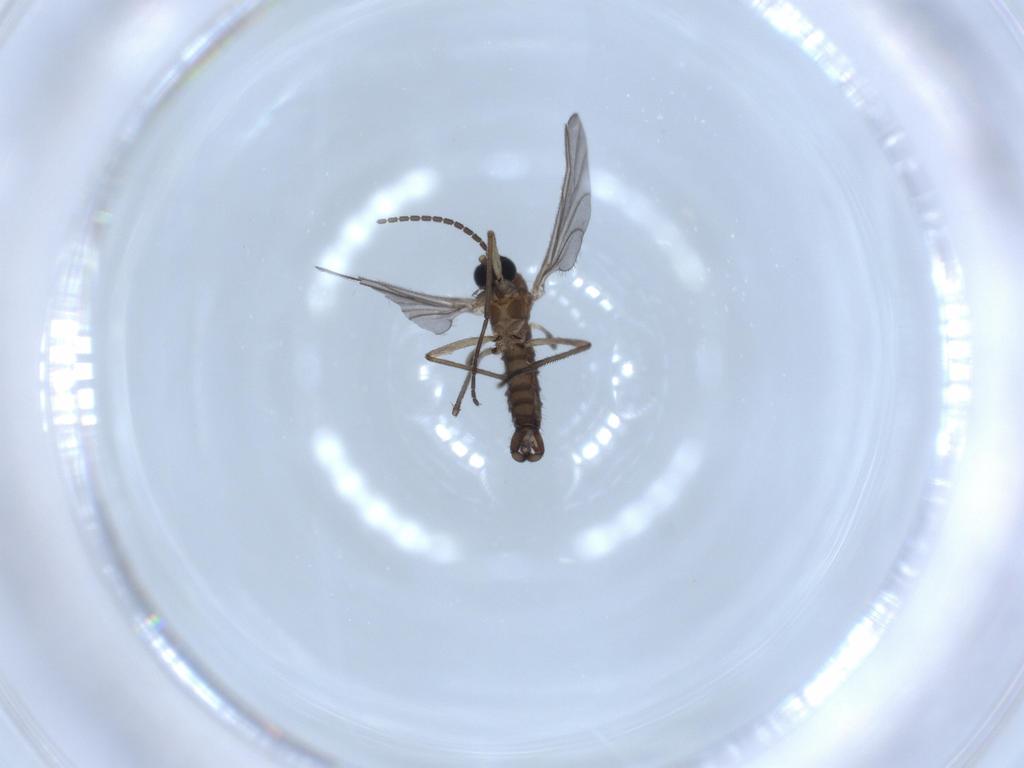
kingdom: Animalia
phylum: Arthropoda
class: Insecta
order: Diptera
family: Sciaridae
